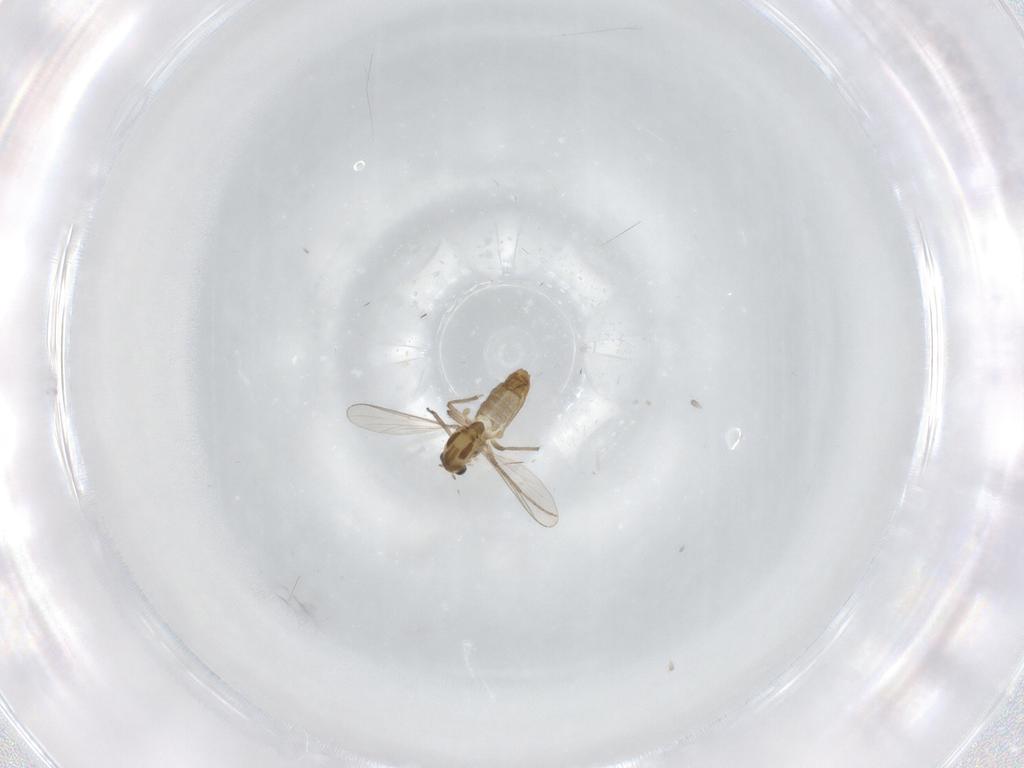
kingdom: Animalia
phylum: Arthropoda
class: Insecta
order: Diptera
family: Chironomidae
